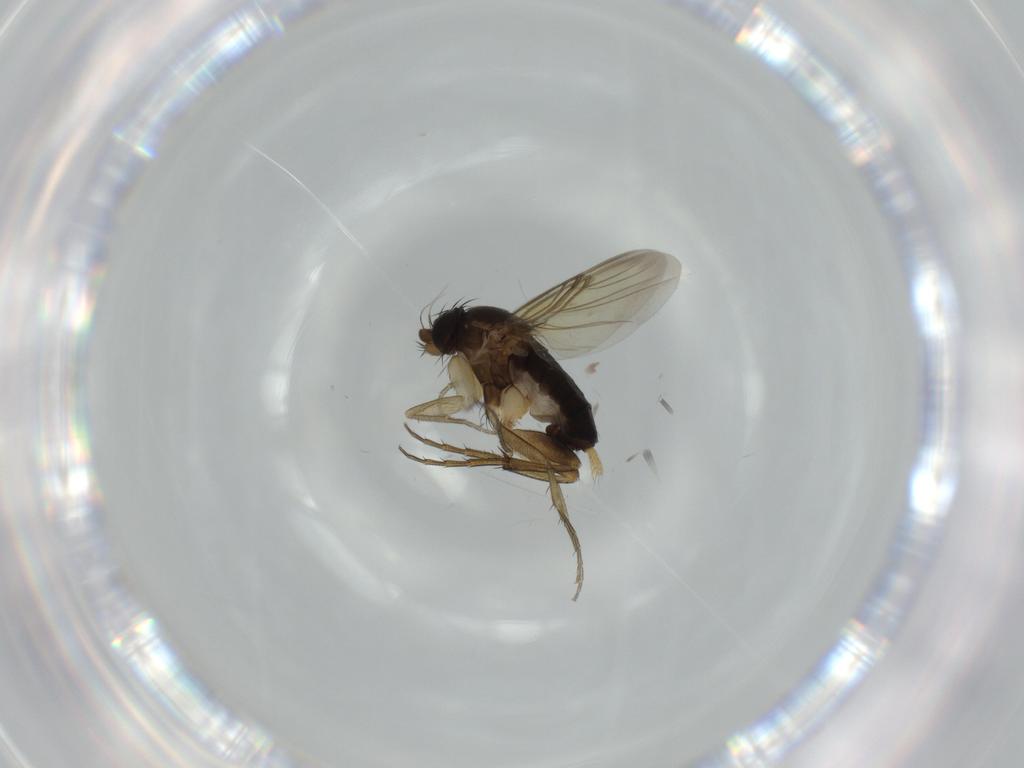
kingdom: Animalia
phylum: Arthropoda
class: Insecta
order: Diptera
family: Phoridae
